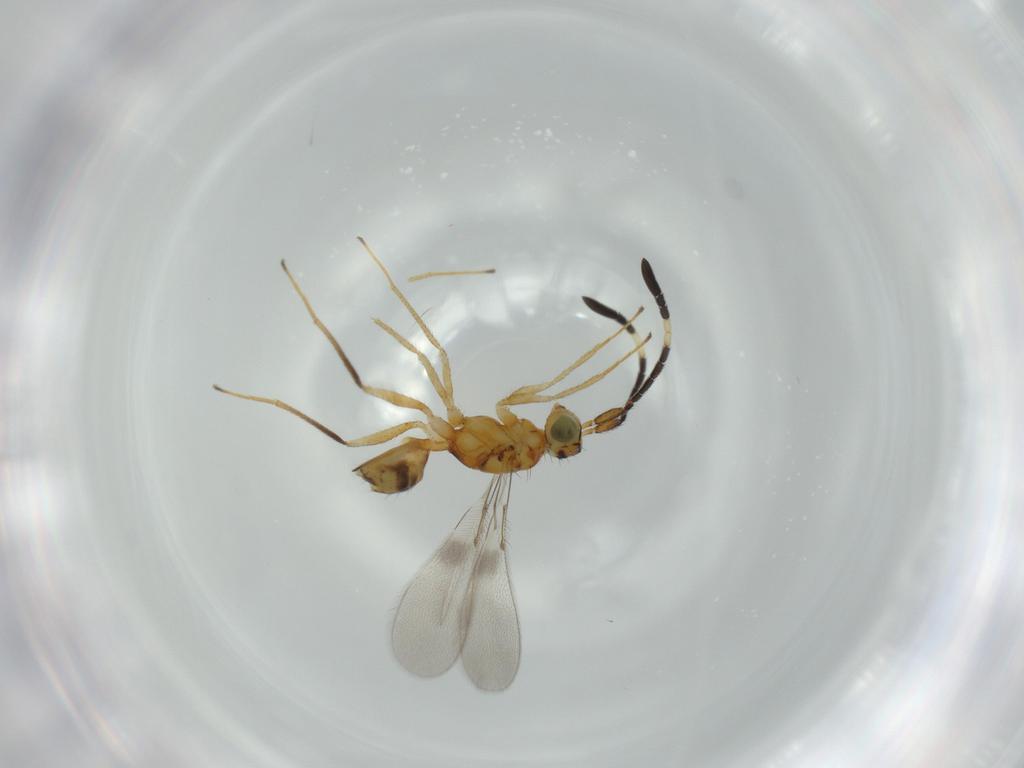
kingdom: Animalia
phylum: Arthropoda
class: Insecta
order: Hymenoptera
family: Mymaridae
